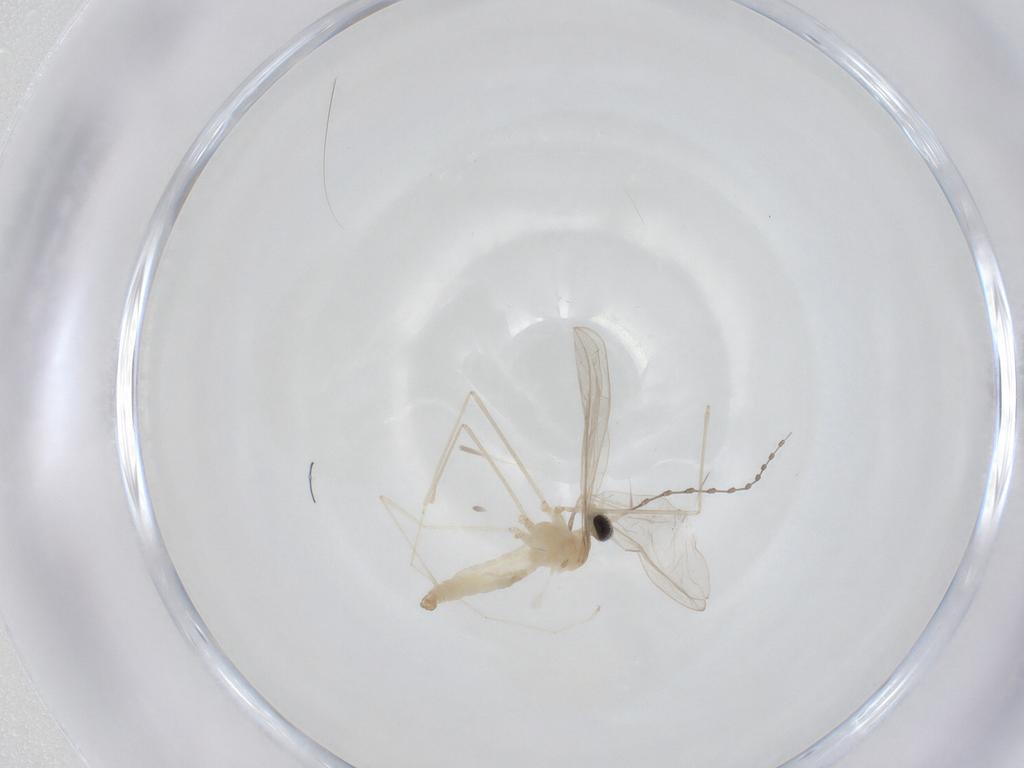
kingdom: Animalia
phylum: Arthropoda
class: Insecta
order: Diptera
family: Cecidomyiidae
